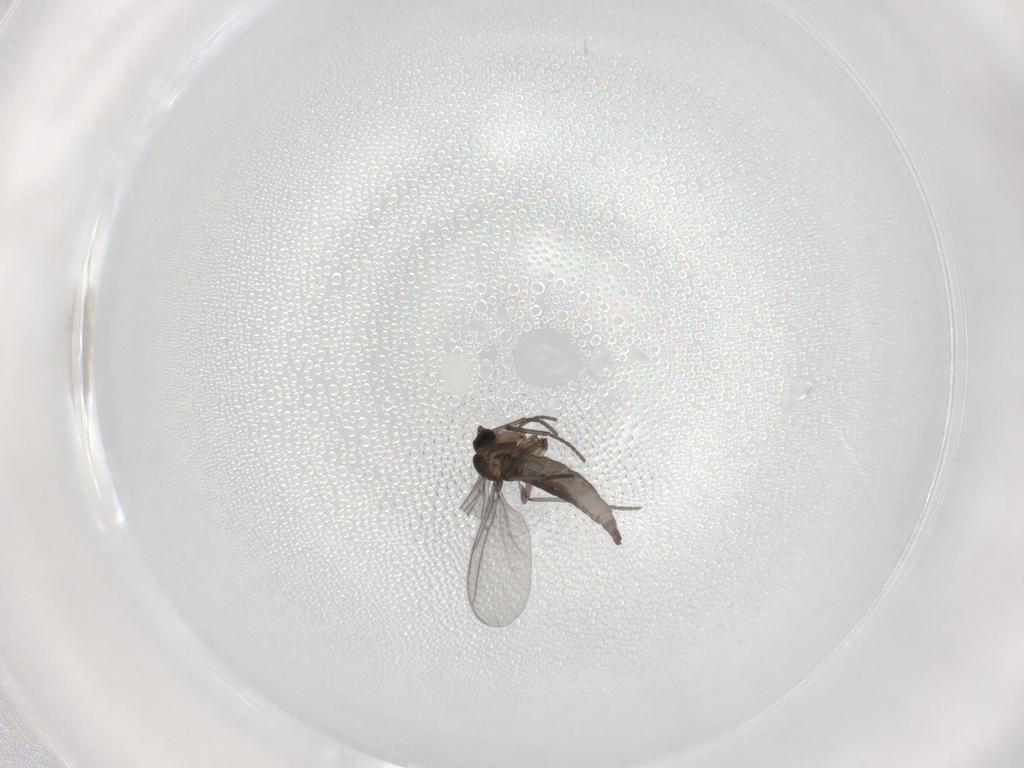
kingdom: Animalia
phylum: Arthropoda
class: Insecta
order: Diptera
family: Sciaridae
